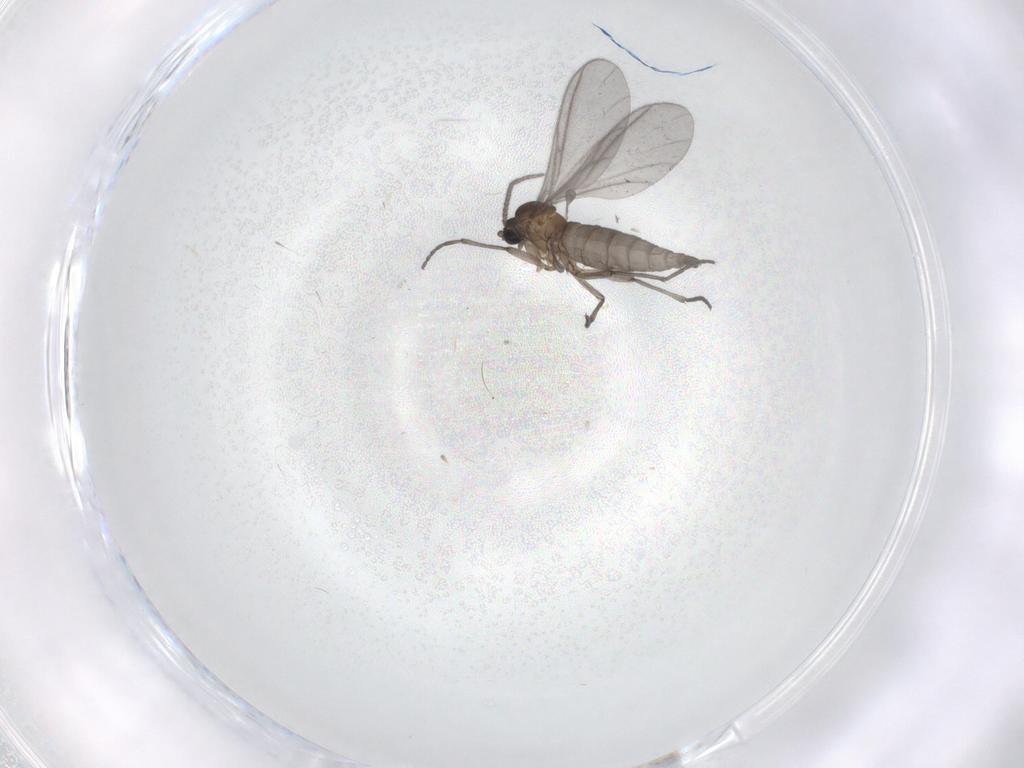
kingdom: Animalia
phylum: Arthropoda
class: Insecta
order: Diptera
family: Sciaridae
